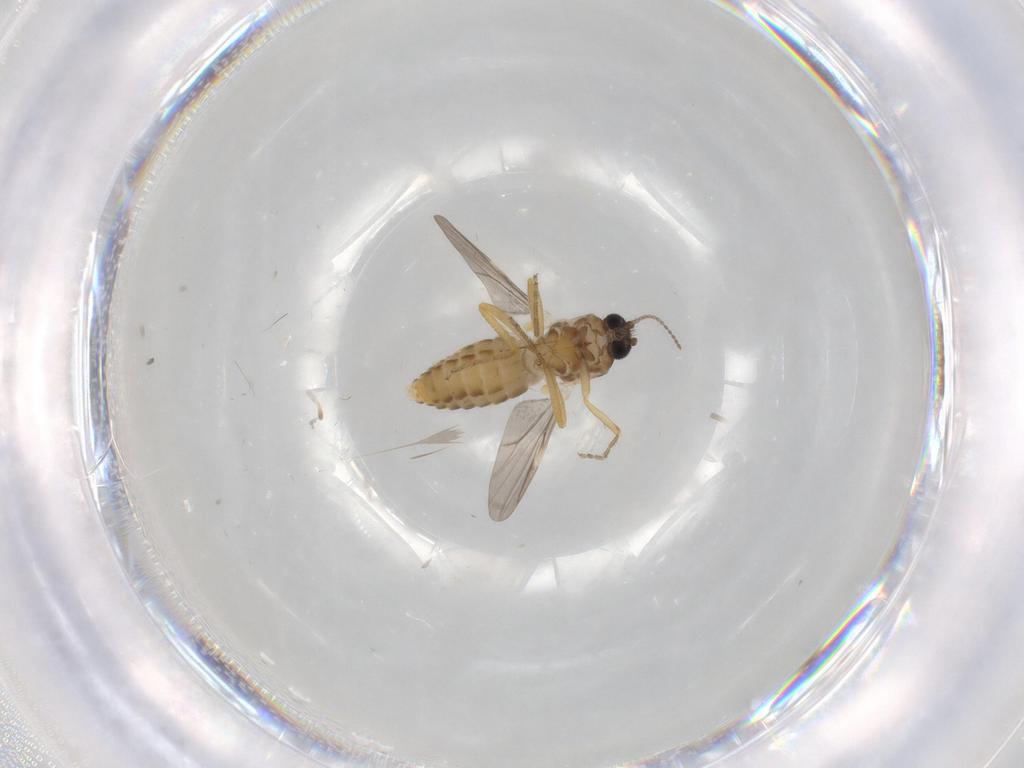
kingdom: Animalia
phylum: Arthropoda
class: Insecta
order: Diptera
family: Ceratopogonidae
